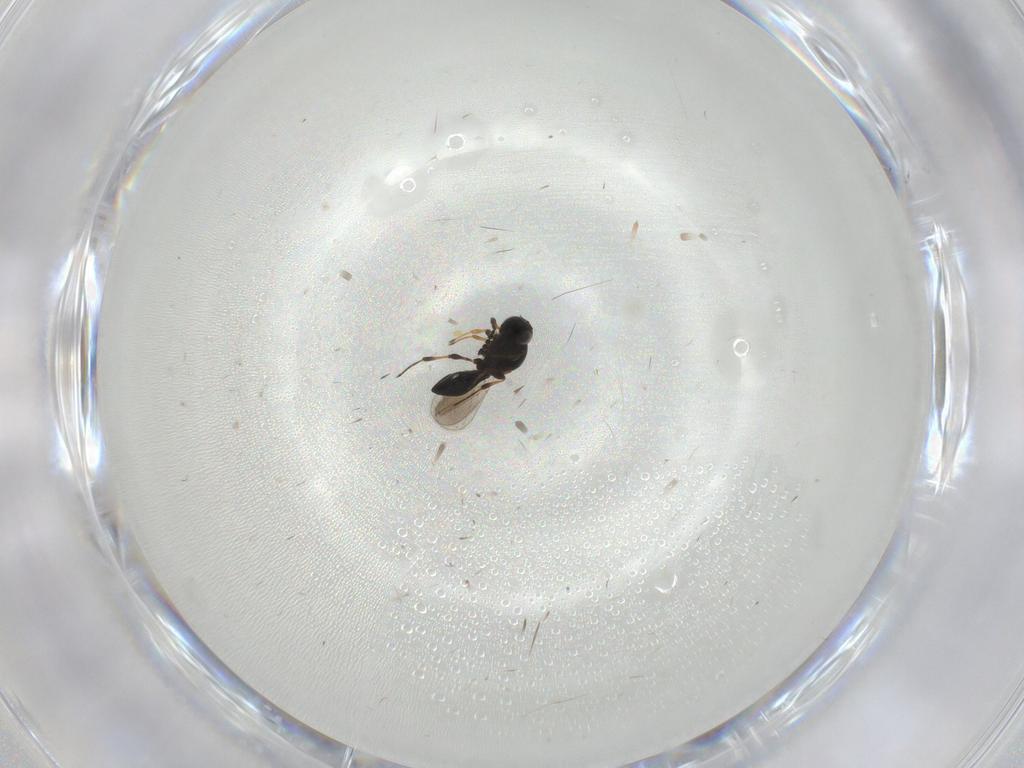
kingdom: Animalia
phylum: Arthropoda
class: Insecta
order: Hymenoptera
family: Platygastridae
